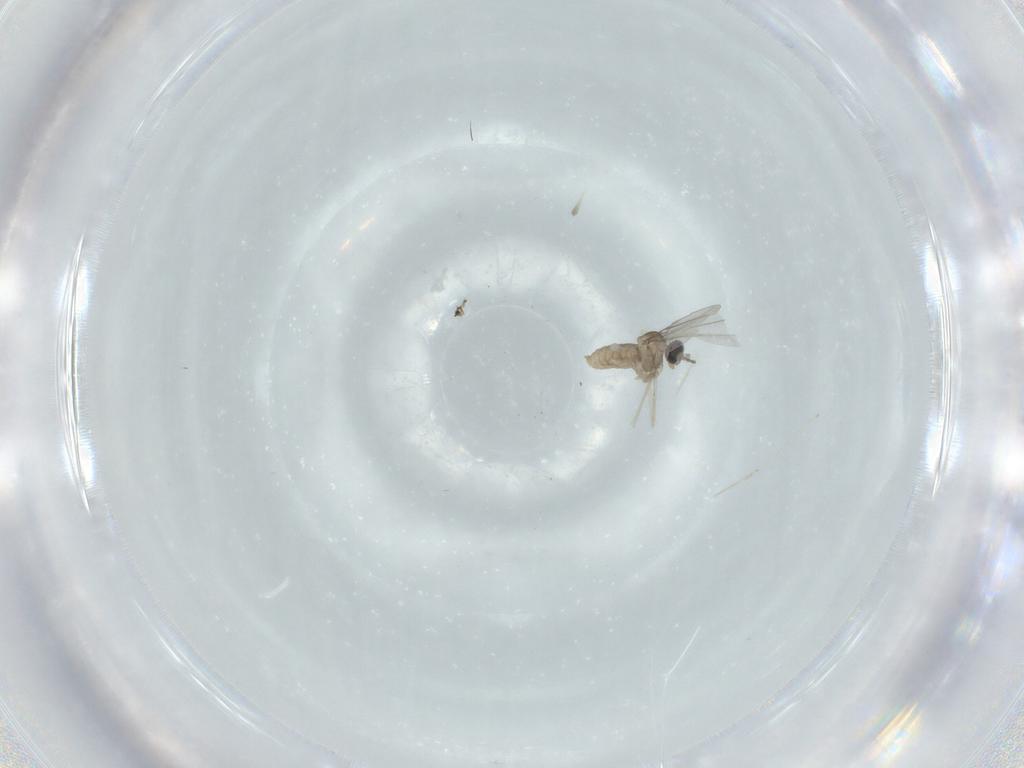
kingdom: Animalia
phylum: Arthropoda
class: Insecta
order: Diptera
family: Cecidomyiidae
